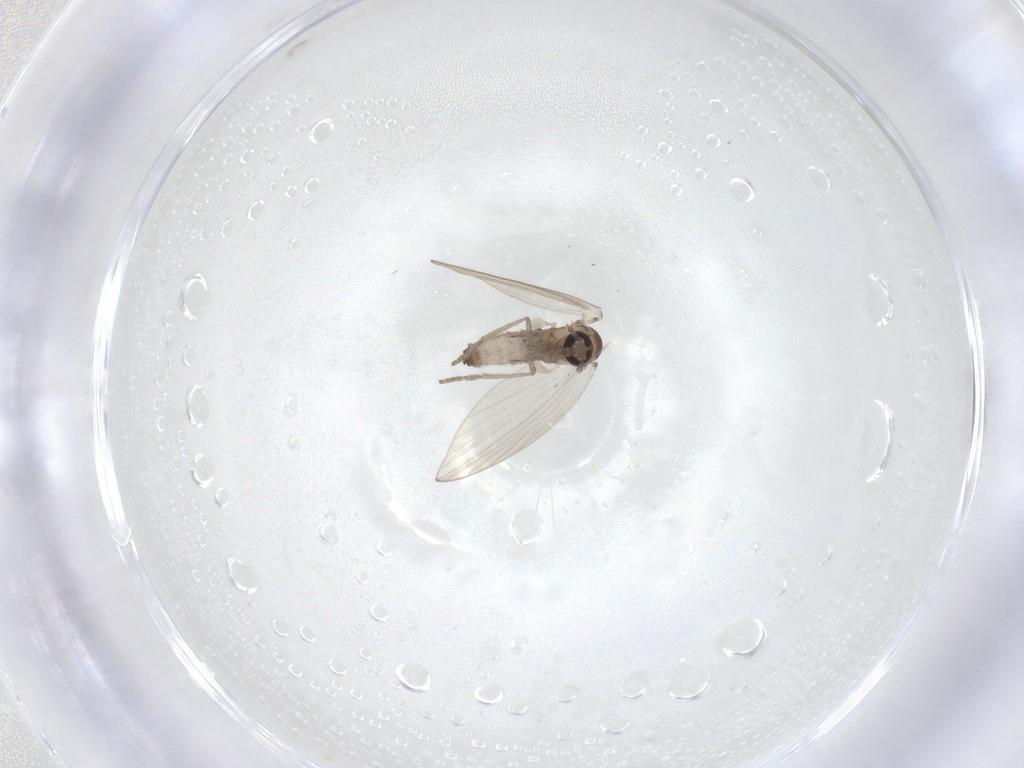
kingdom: Animalia
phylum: Arthropoda
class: Insecta
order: Diptera
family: Psychodidae
